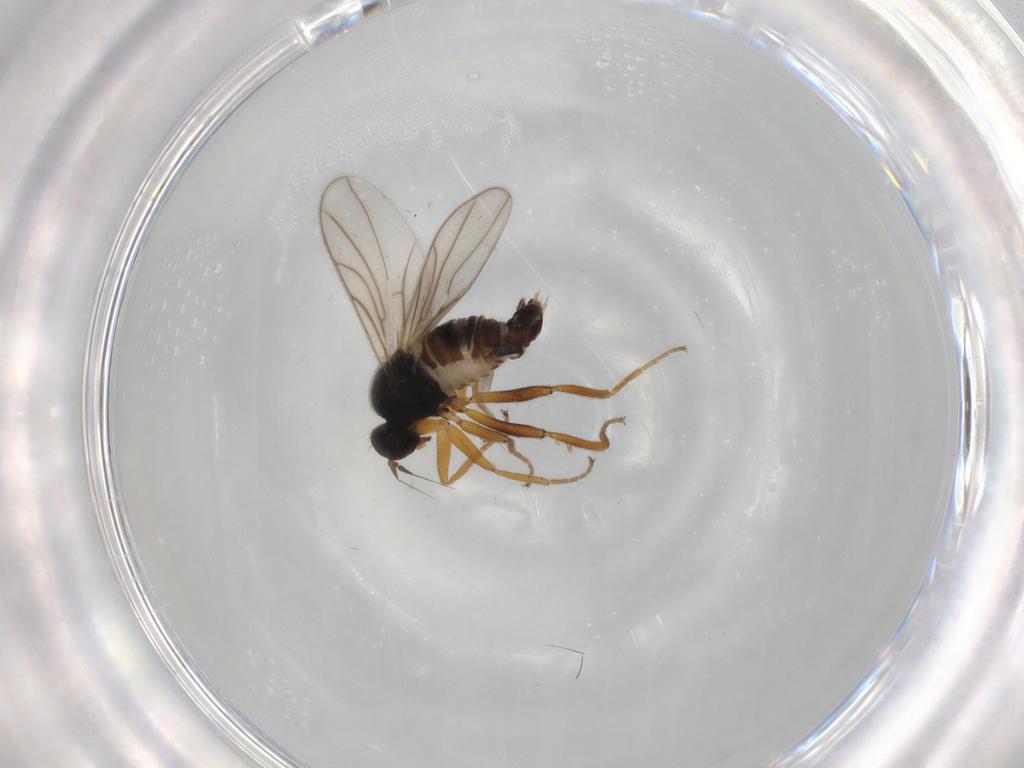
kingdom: Animalia
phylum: Arthropoda
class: Insecta
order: Diptera
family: Hybotidae
